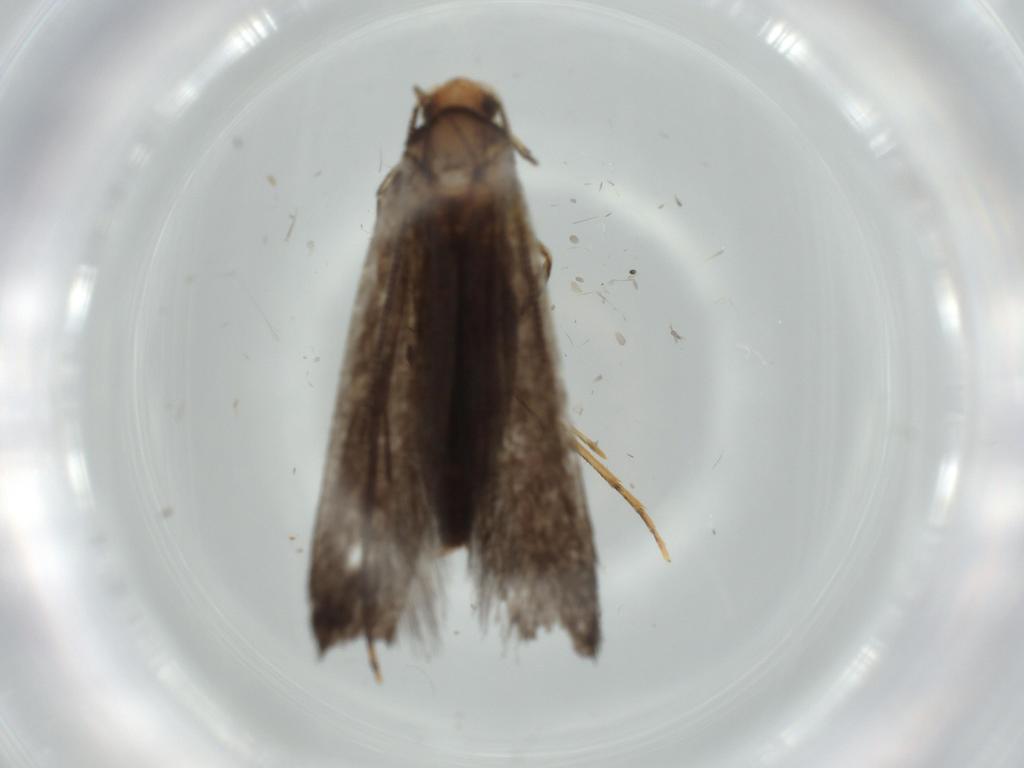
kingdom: Animalia
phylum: Arthropoda
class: Insecta
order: Lepidoptera
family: Tineidae
